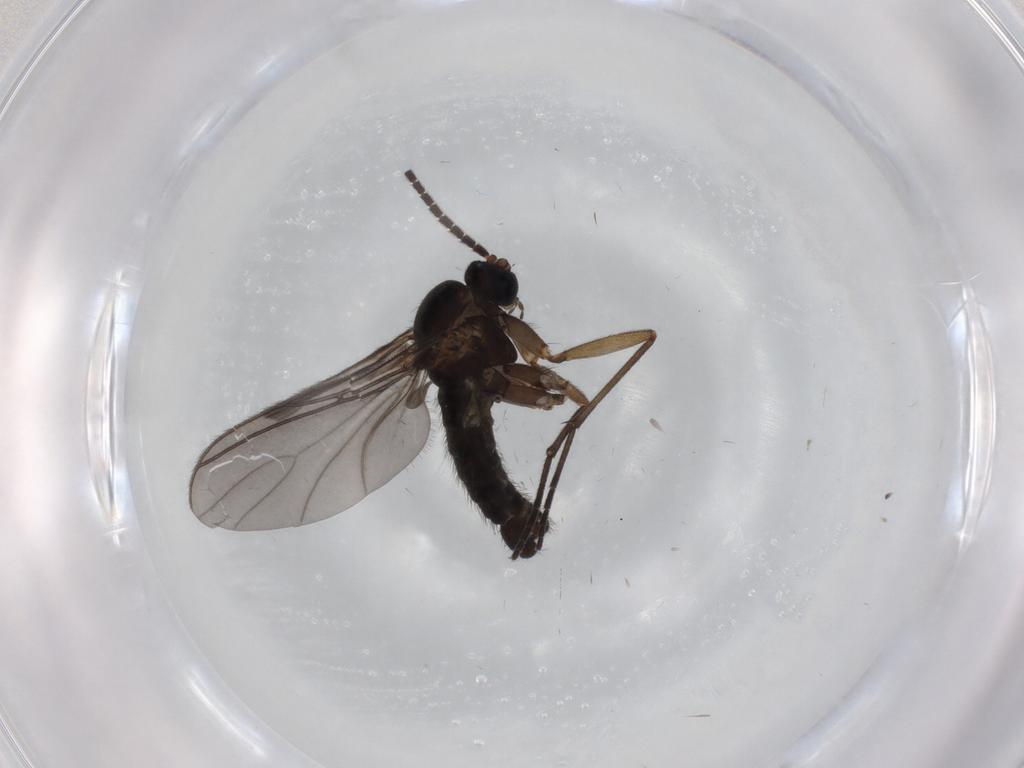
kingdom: Animalia
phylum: Arthropoda
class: Insecta
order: Diptera
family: Sciaridae
